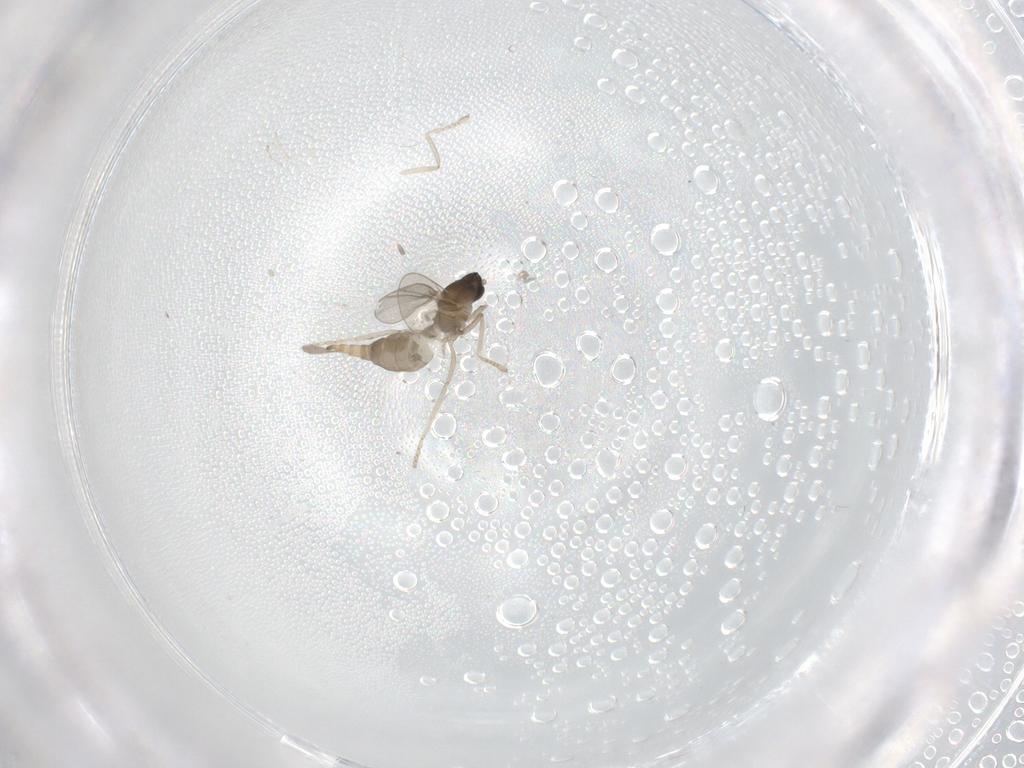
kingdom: Animalia
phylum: Arthropoda
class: Insecta
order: Diptera
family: Cecidomyiidae
